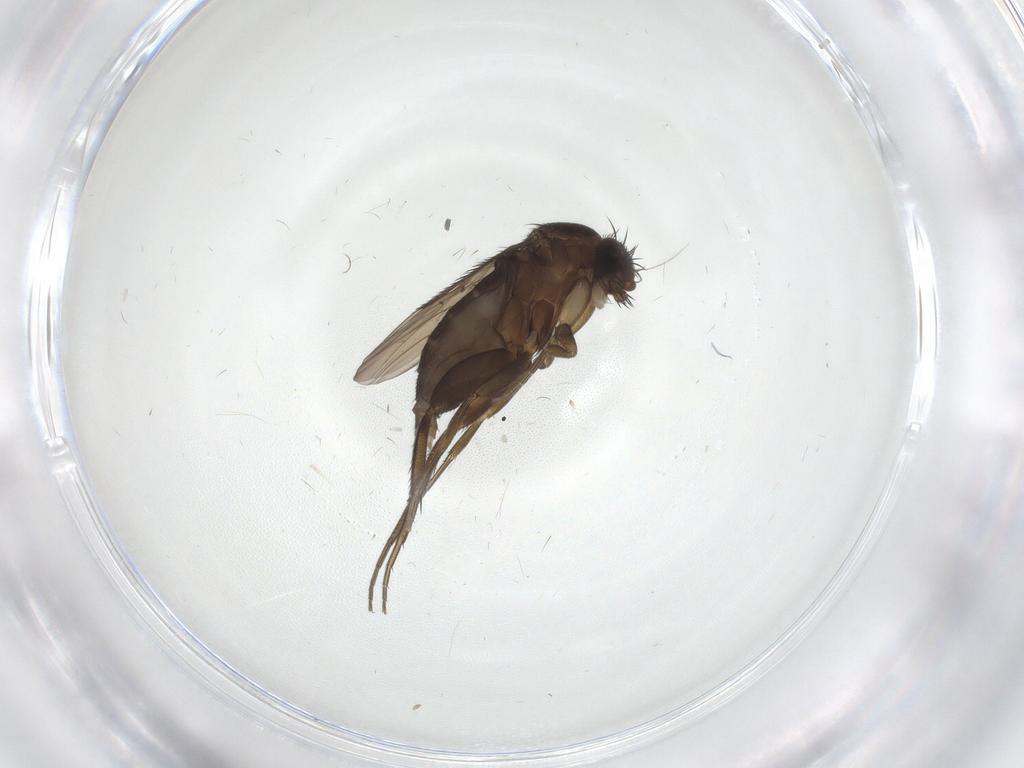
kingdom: Animalia
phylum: Arthropoda
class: Insecta
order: Diptera
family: Phoridae
